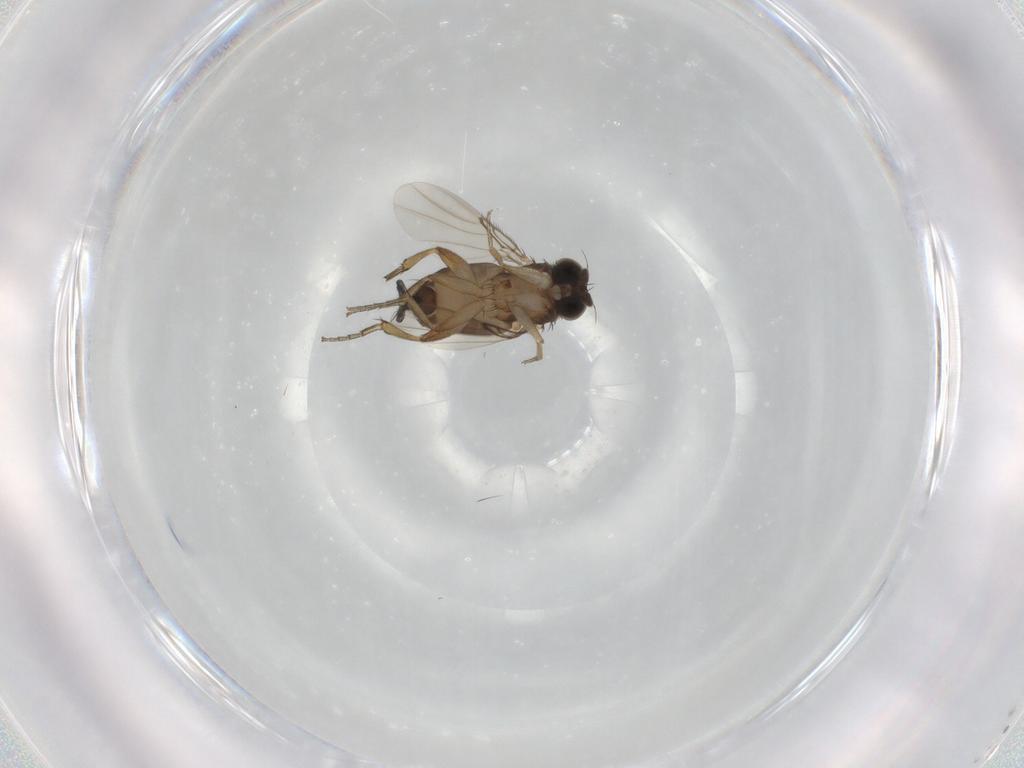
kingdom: Animalia
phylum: Arthropoda
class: Insecta
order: Diptera
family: Phoridae
